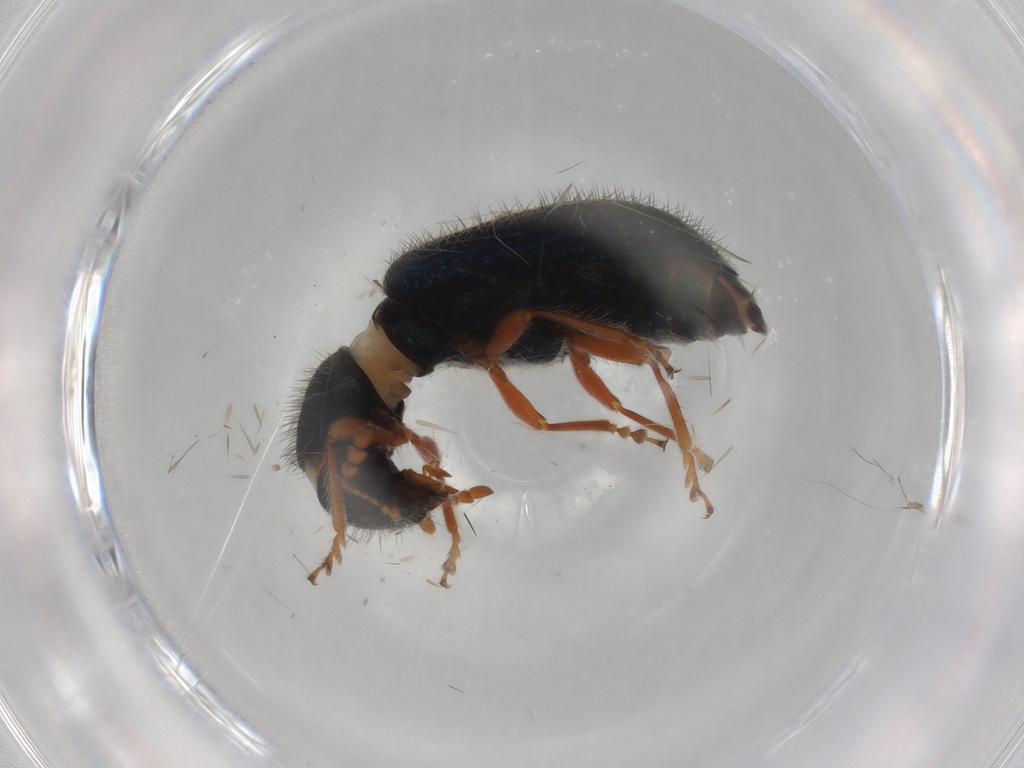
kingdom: Animalia
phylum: Arthropoda
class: Insecta
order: Coleoptera
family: Cleridae
